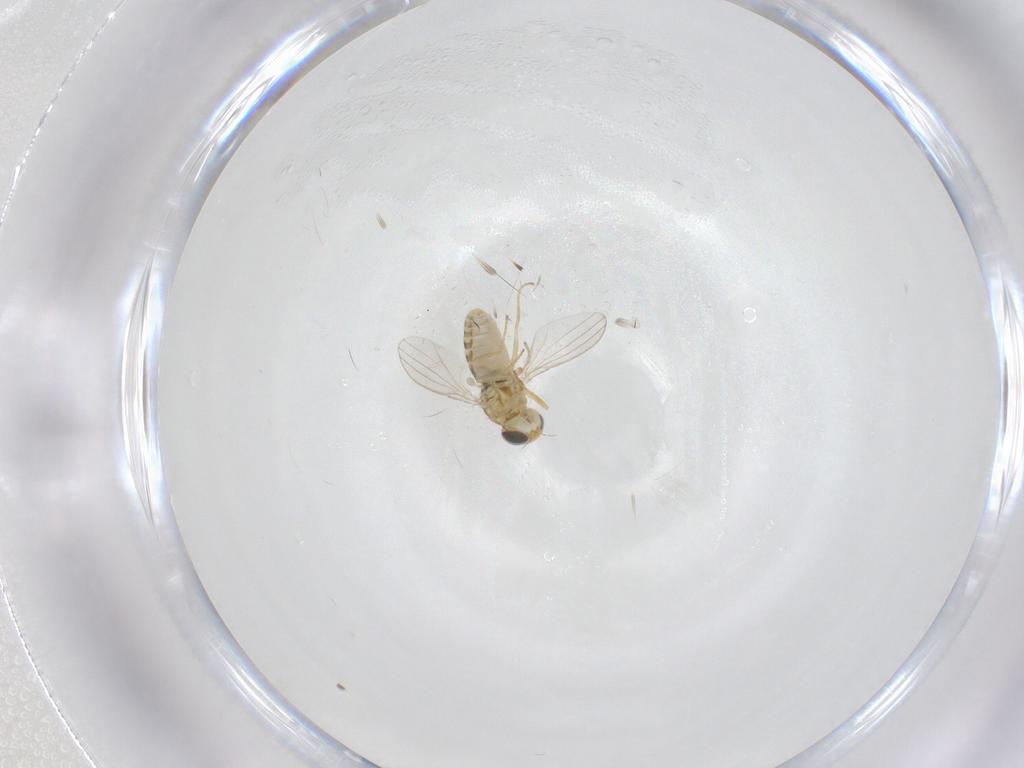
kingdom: Animalia
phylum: Arthropoda
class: Insecta
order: Diptera
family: Chyromyidae
